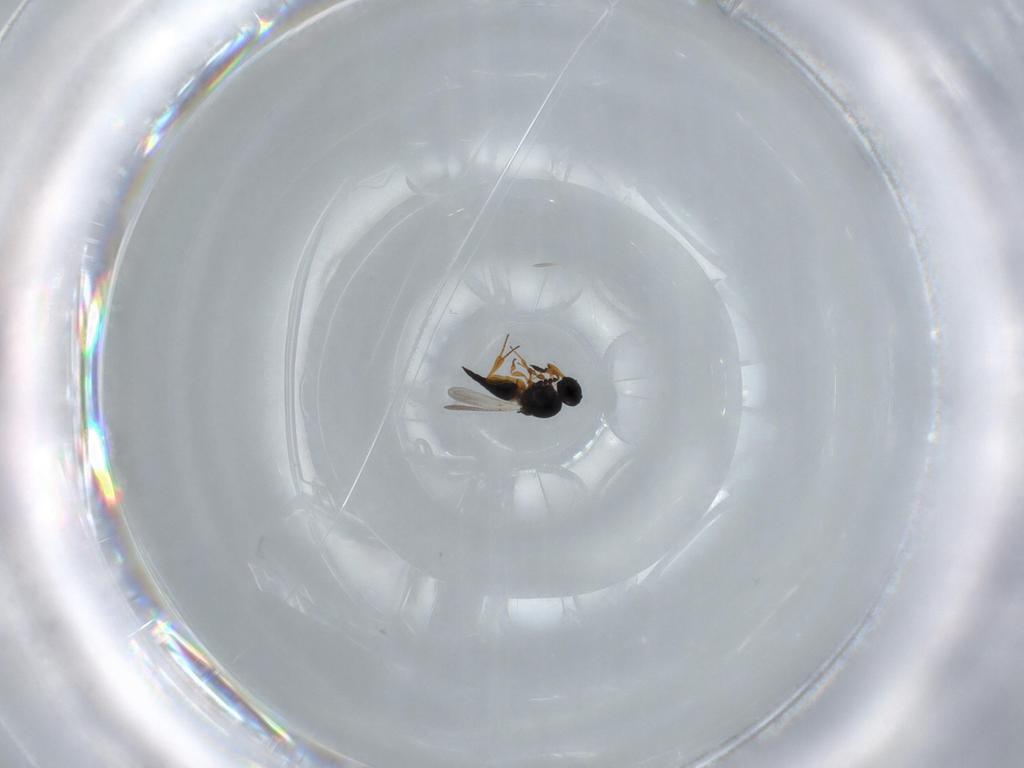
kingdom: Animalia
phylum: Arthropoda
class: Insecta
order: Hymenoptera
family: Platygastridae
